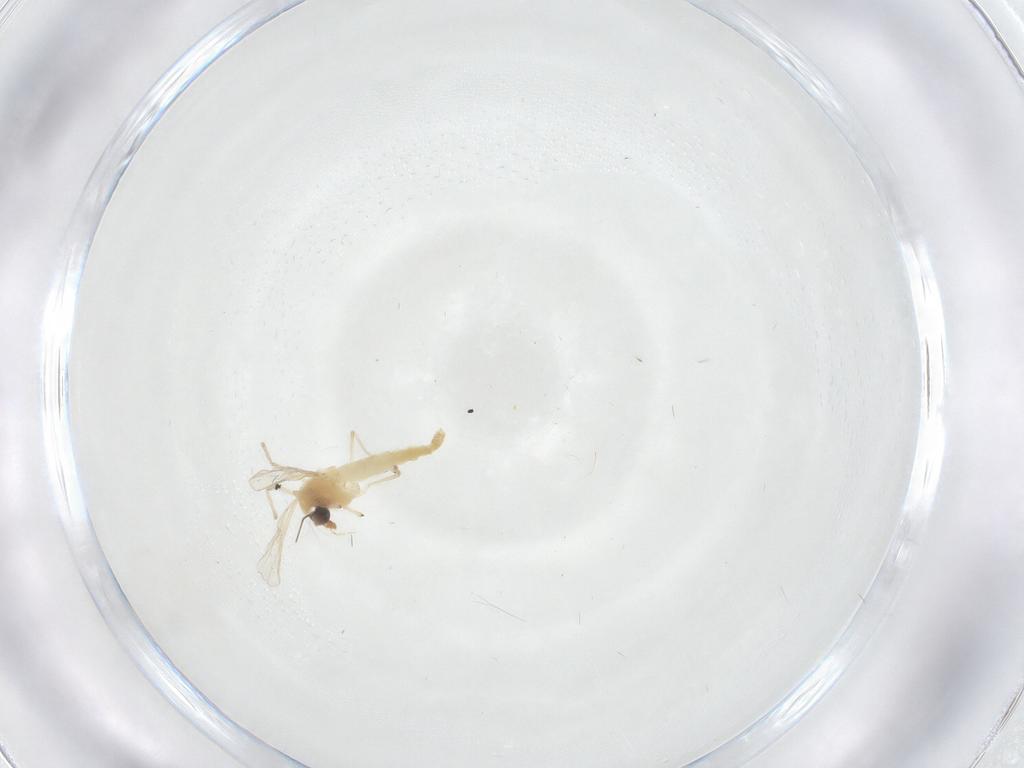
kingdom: Animalia
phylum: Arthropoda
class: Insecta
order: Diptera
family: Chironomidae
